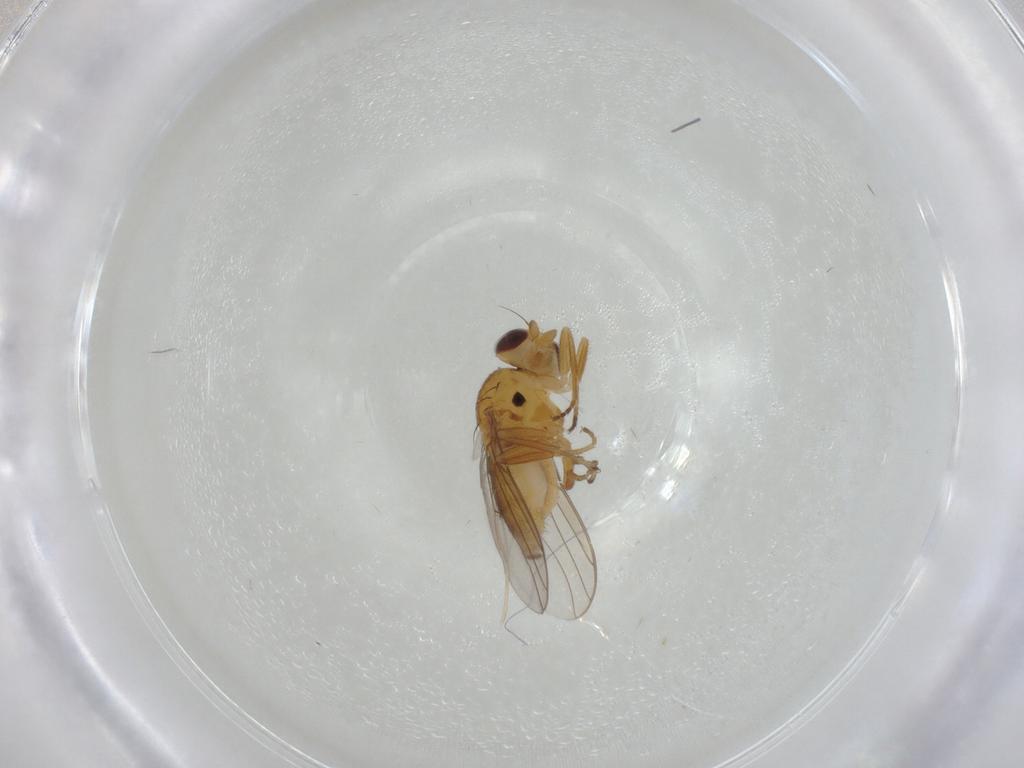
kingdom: Animalia
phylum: Arthropoda
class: Insecta
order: Diptera
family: Chloropidae
